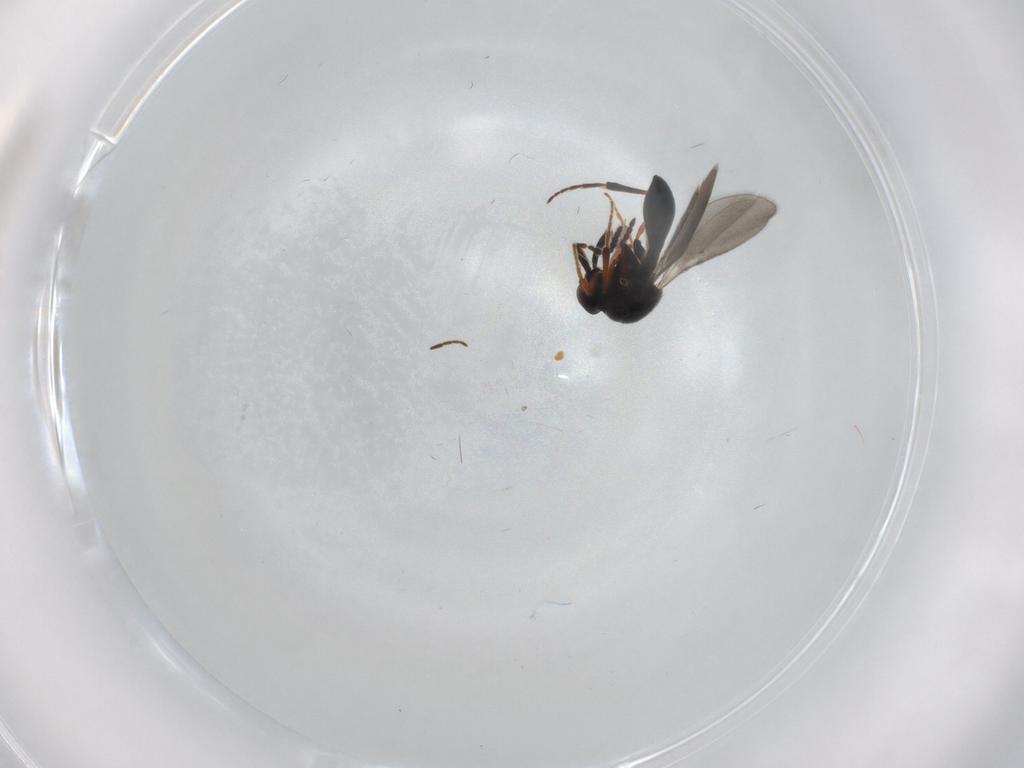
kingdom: Animalia
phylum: Arthropoda
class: Insecta
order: Hymenoptera
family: Platygastridae
